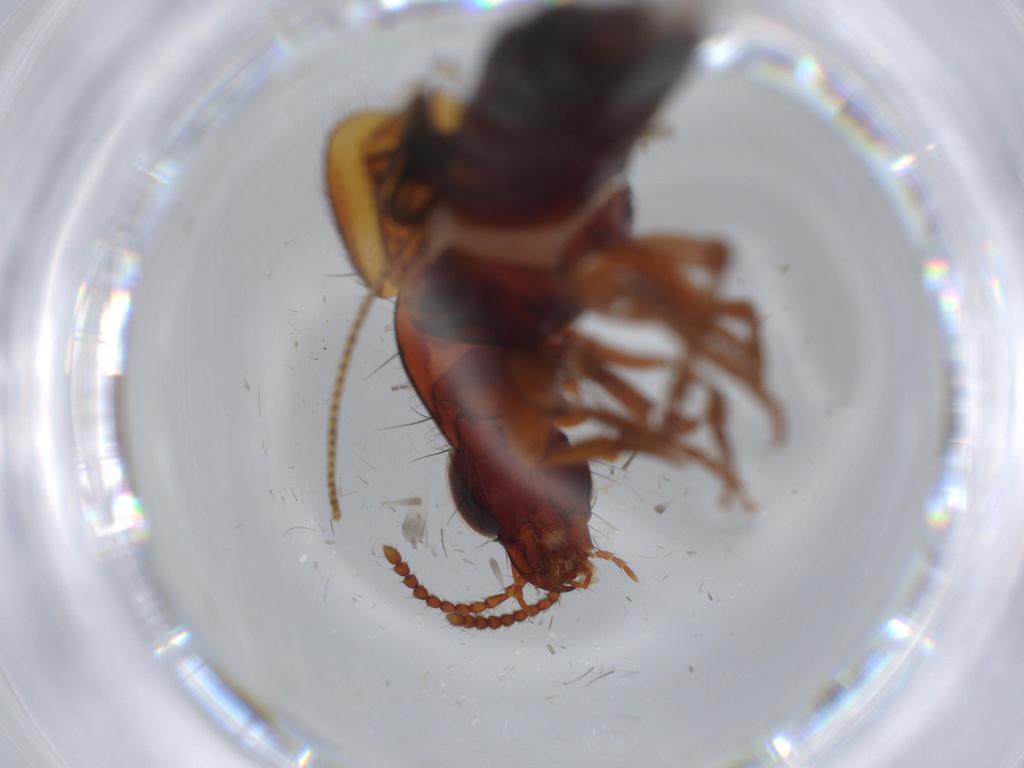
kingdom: Animalia
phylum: Arthropoda
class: Insecta
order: Coleoptera
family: Staphylinidae
